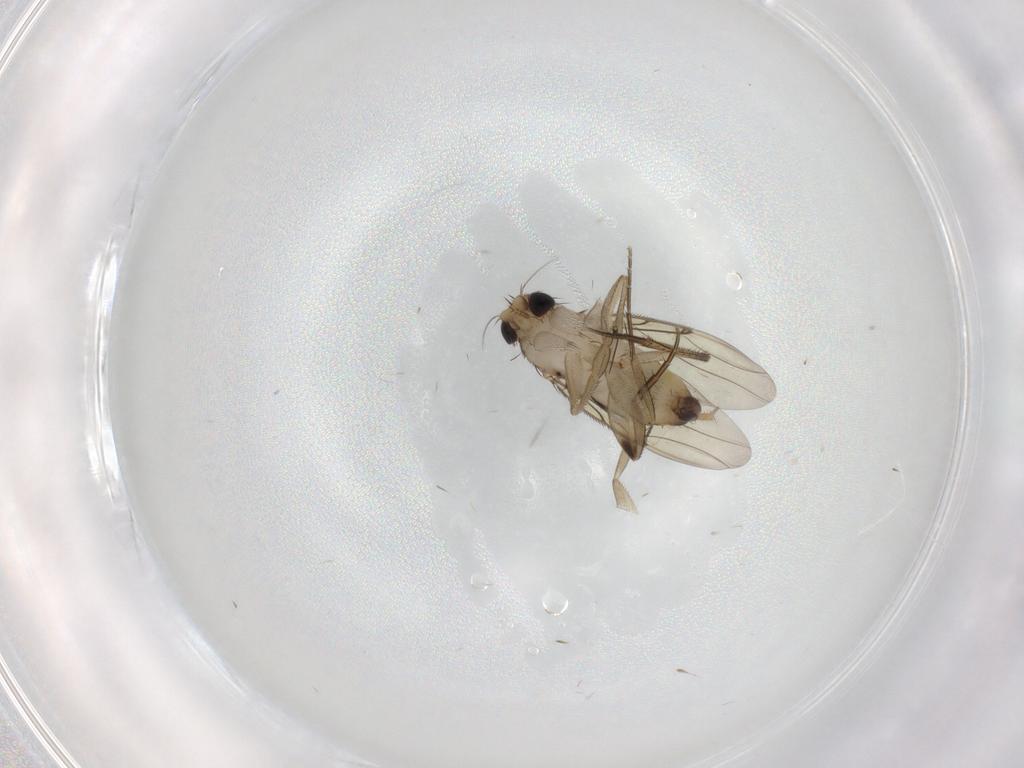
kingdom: Animalia
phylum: Arthropoda
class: Insecta
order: Diptera
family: Phoridae
